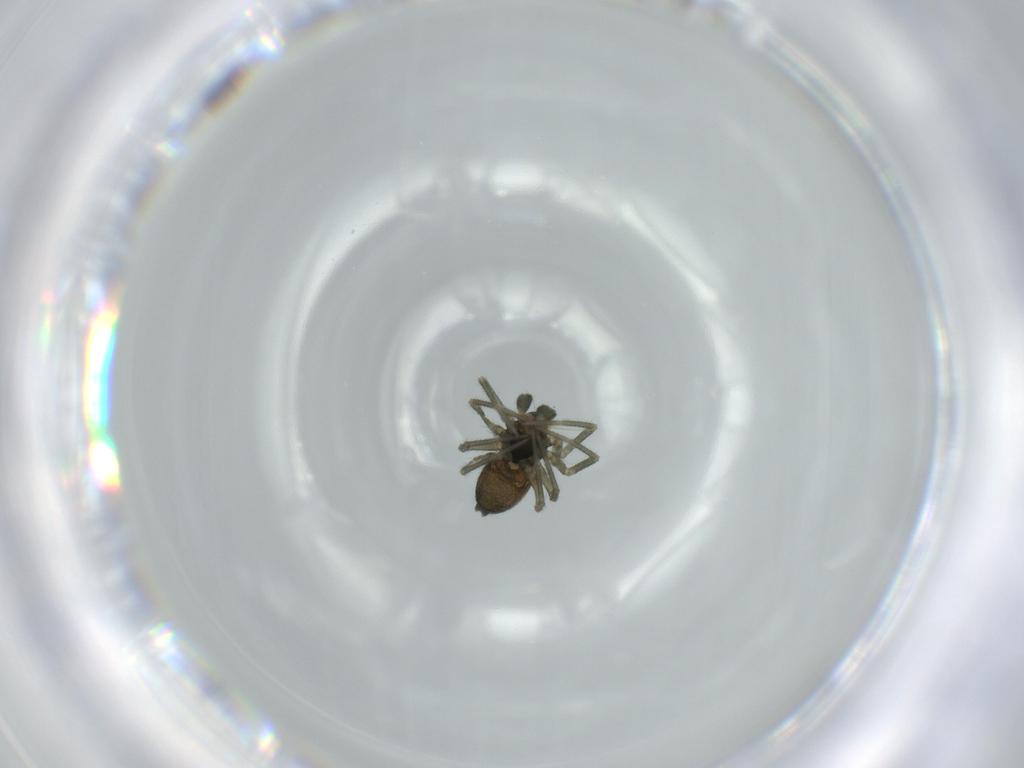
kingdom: Animalia
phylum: Arthropoda
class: Arachnida
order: Araneae
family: Linyphiidae
